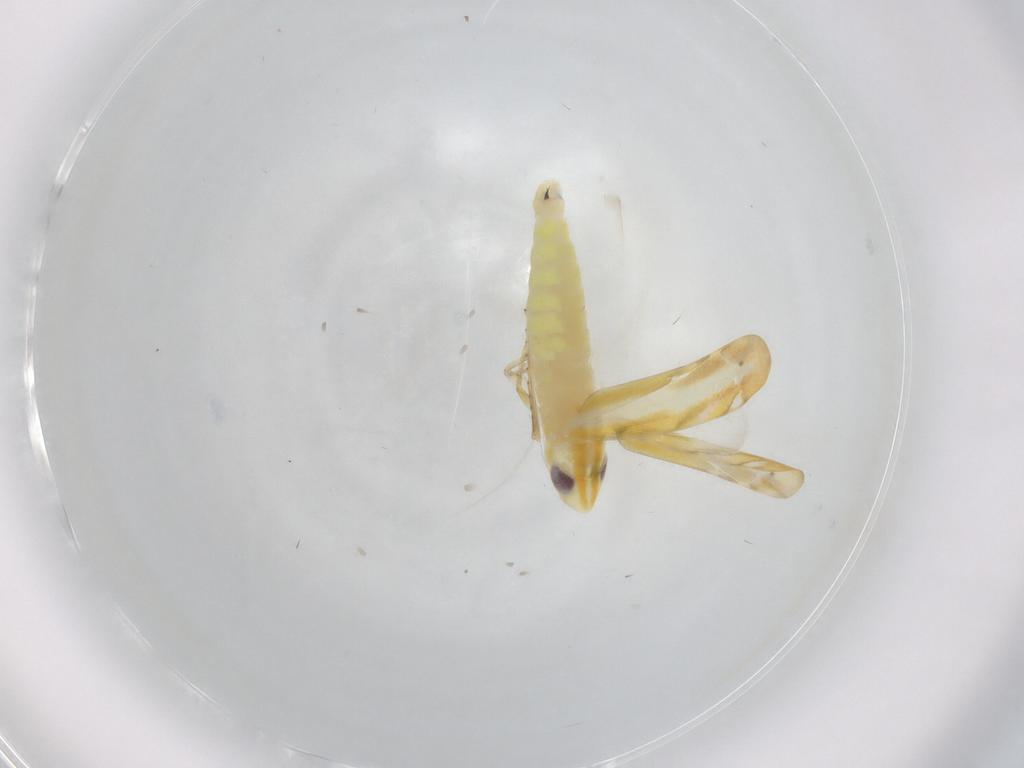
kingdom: Animalia
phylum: Arthropoda
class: Insecta
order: Hemiptera
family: Cicadellidae
